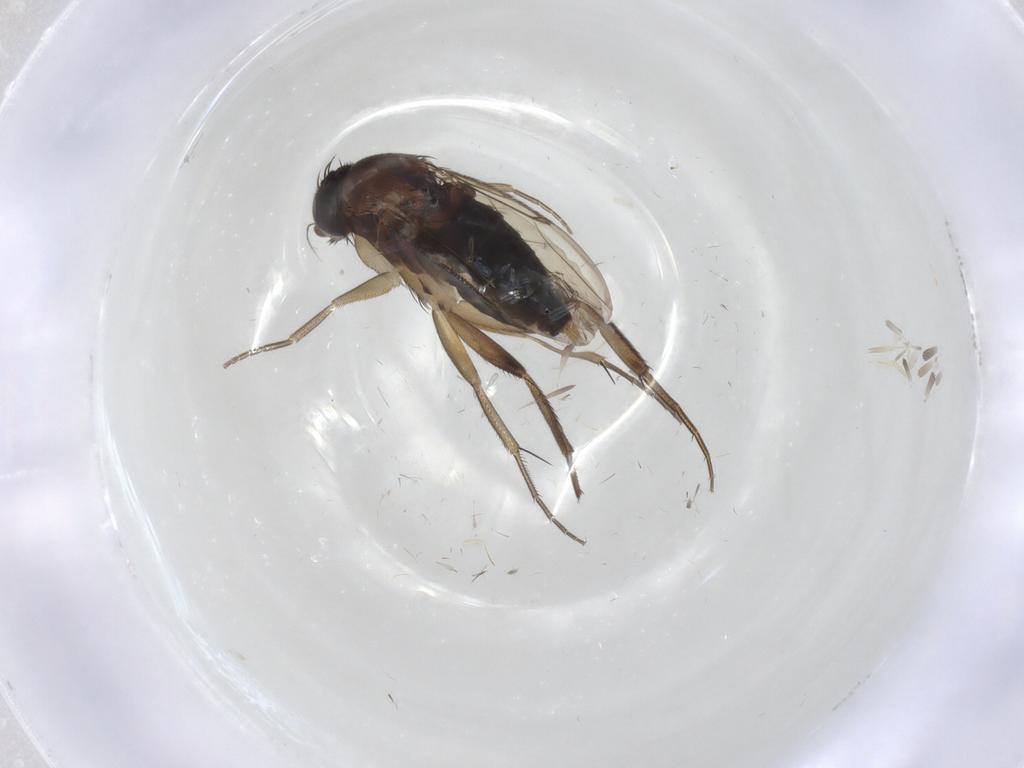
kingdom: Animalia
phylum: Arthropoda
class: Insecta
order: Diptera
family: Phoridae
